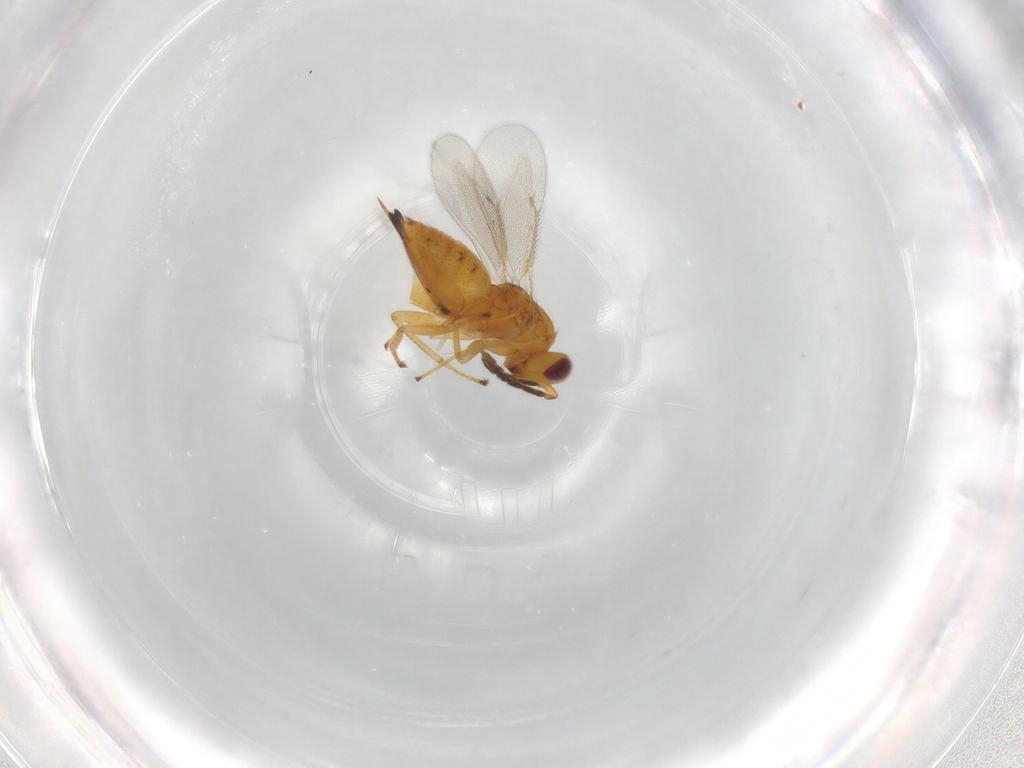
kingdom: Animalia
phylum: Arthropoda
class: Insecta
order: Hymenoptera
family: Eulophidae
